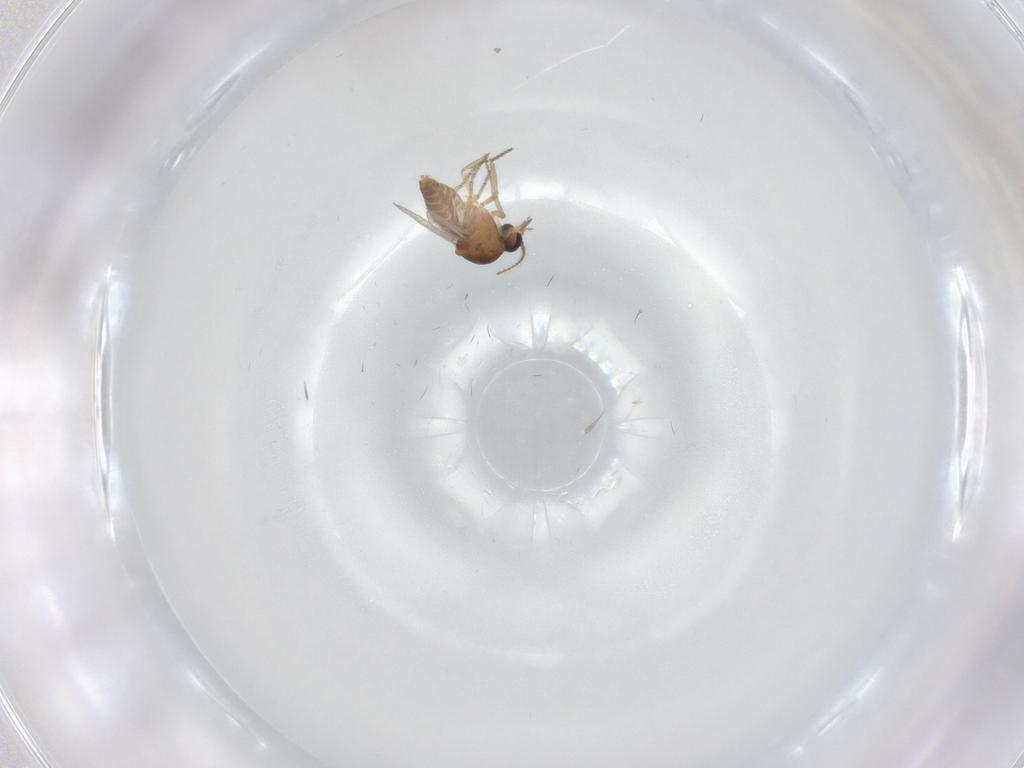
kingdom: Animalia
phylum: Arthropoda
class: Insecta
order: Diptera
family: Ceratopogonidae
